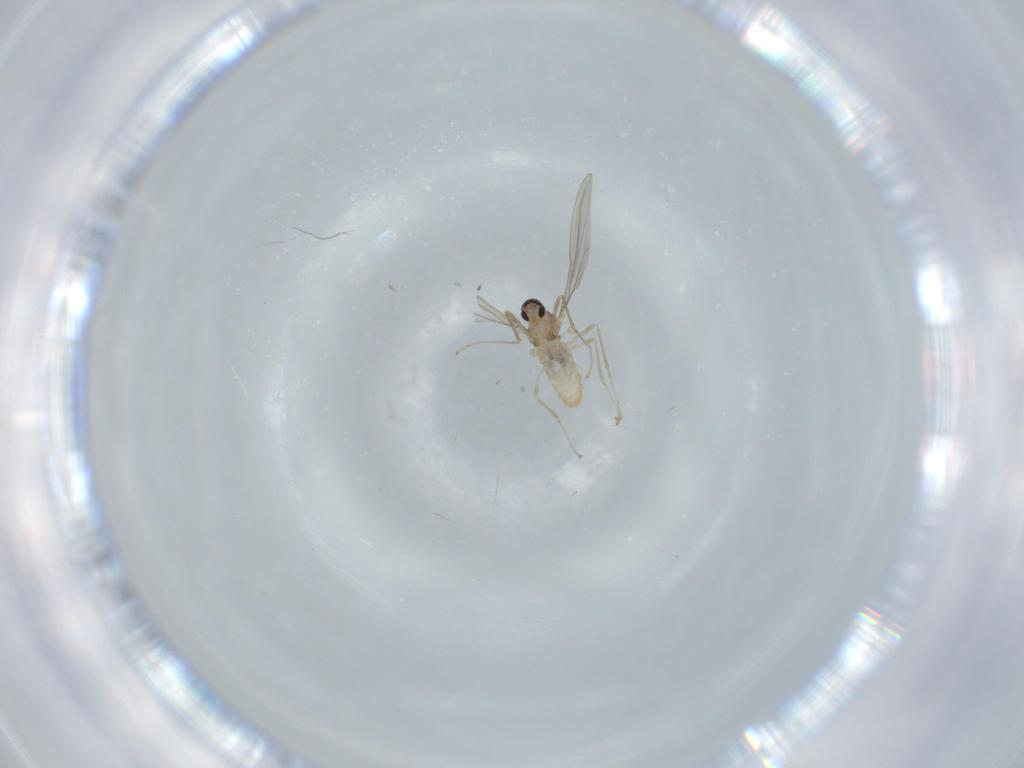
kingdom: Animalia
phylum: Arthropoda
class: Insecta
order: Diptera
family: Cecidomyiidae
